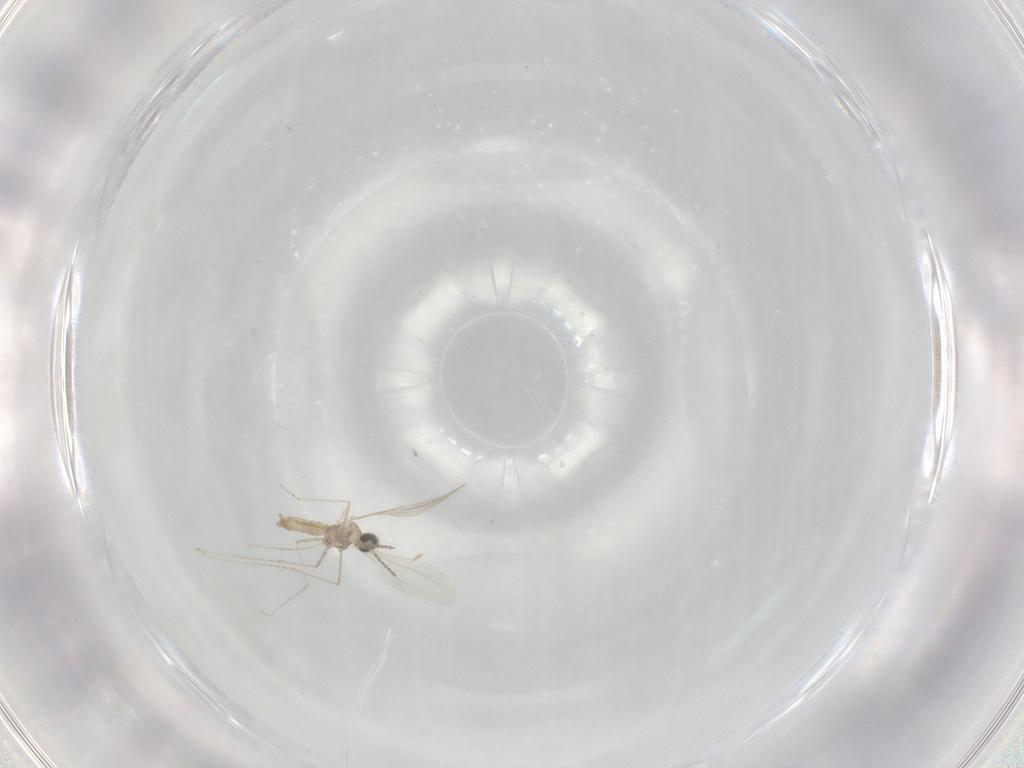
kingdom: Animalia
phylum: Arthropoda
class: Insecta
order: Diptera
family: Cecidomyiidae
